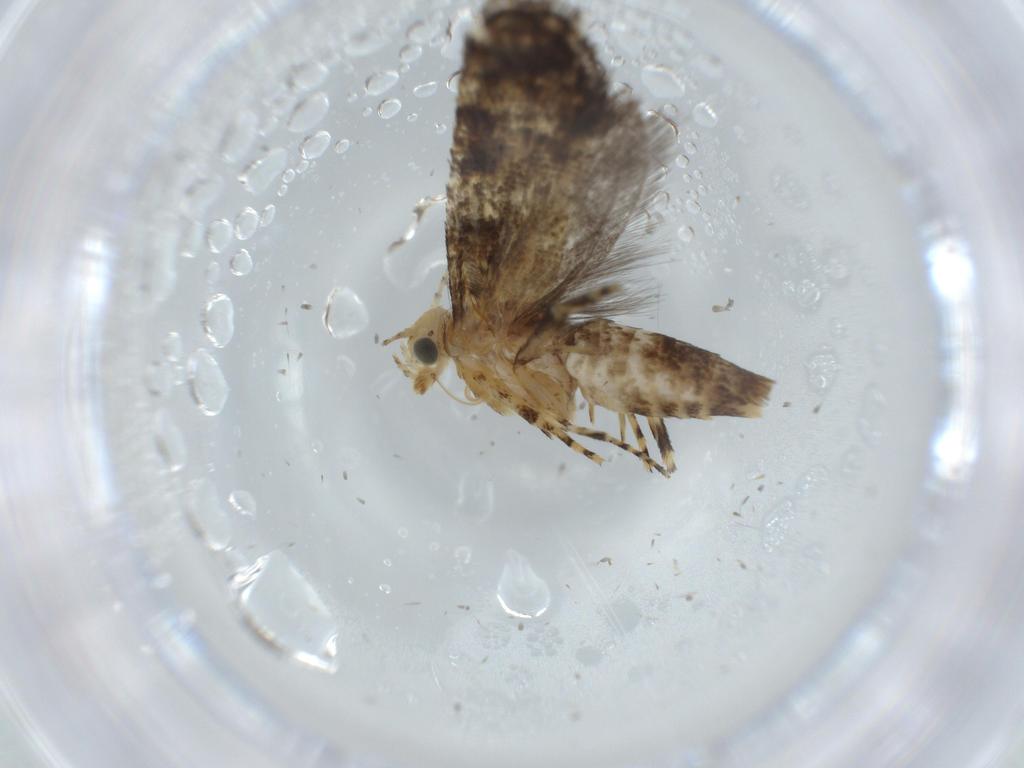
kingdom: Animalia
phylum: Arthropoda
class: Insecta
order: Lepidoptera
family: Glyphipterigidae
